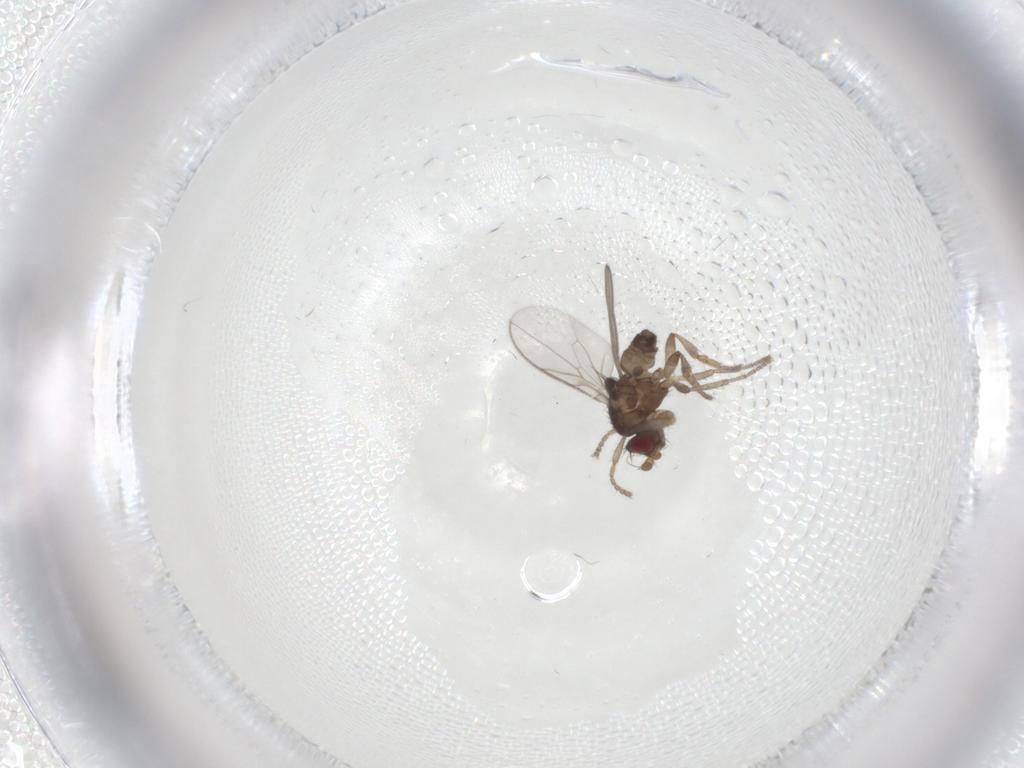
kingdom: Animalia
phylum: Arthropoda
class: Insecta
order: Diptera
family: Sphaeroceridae
